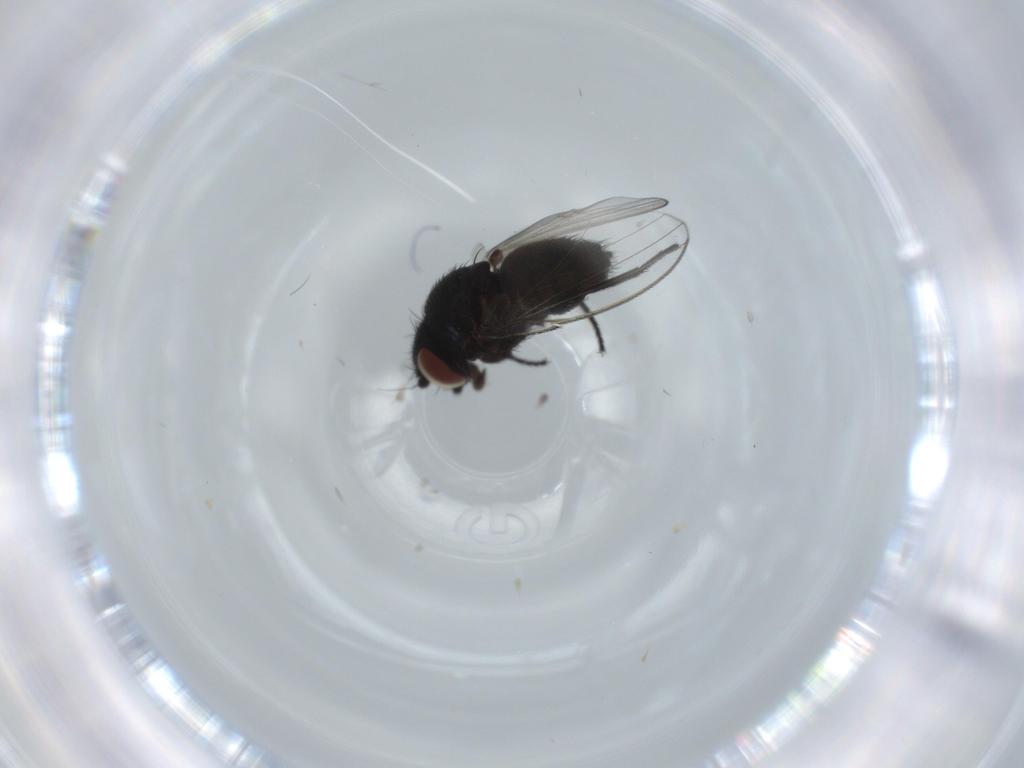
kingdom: Animalia
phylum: Arthropoda
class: Insecta
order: Diptera
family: Milichiidae
